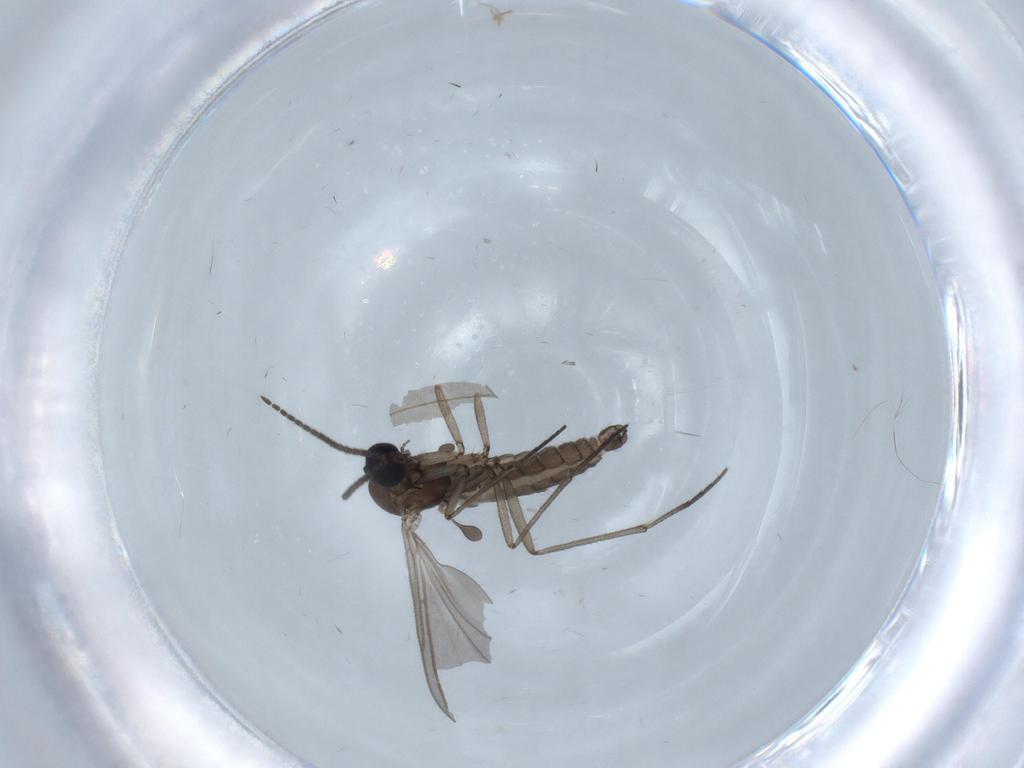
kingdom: Animalia
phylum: Arthropoda
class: Insecta
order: Diptera
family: Sciaridae
